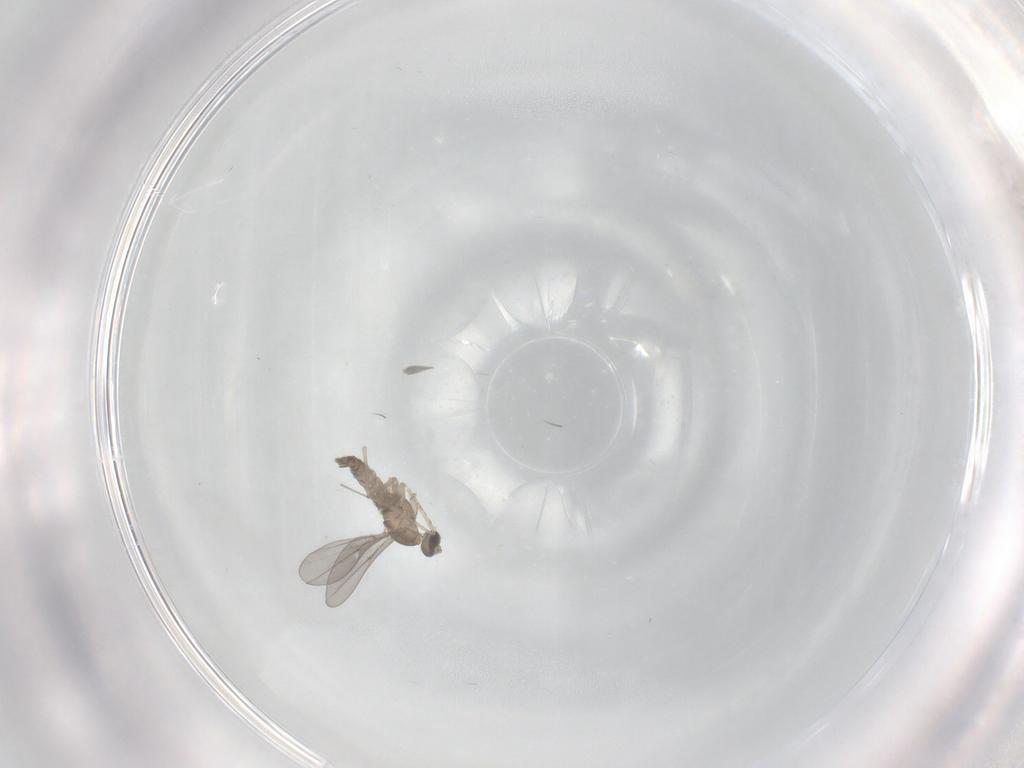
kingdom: Animalia
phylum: Arthropoda
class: Insecta
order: Diptera
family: Cecidomyiidae
